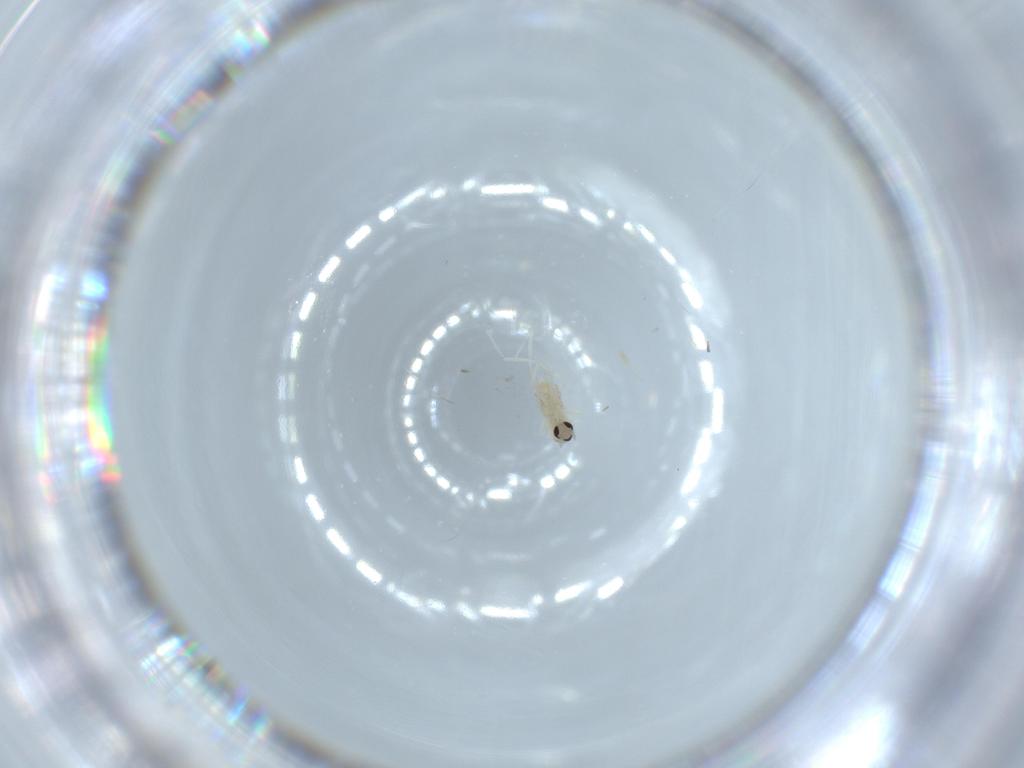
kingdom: Animalia
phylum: Arthropoda
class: Insecta
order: Diptera
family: Cecidomyiidae
